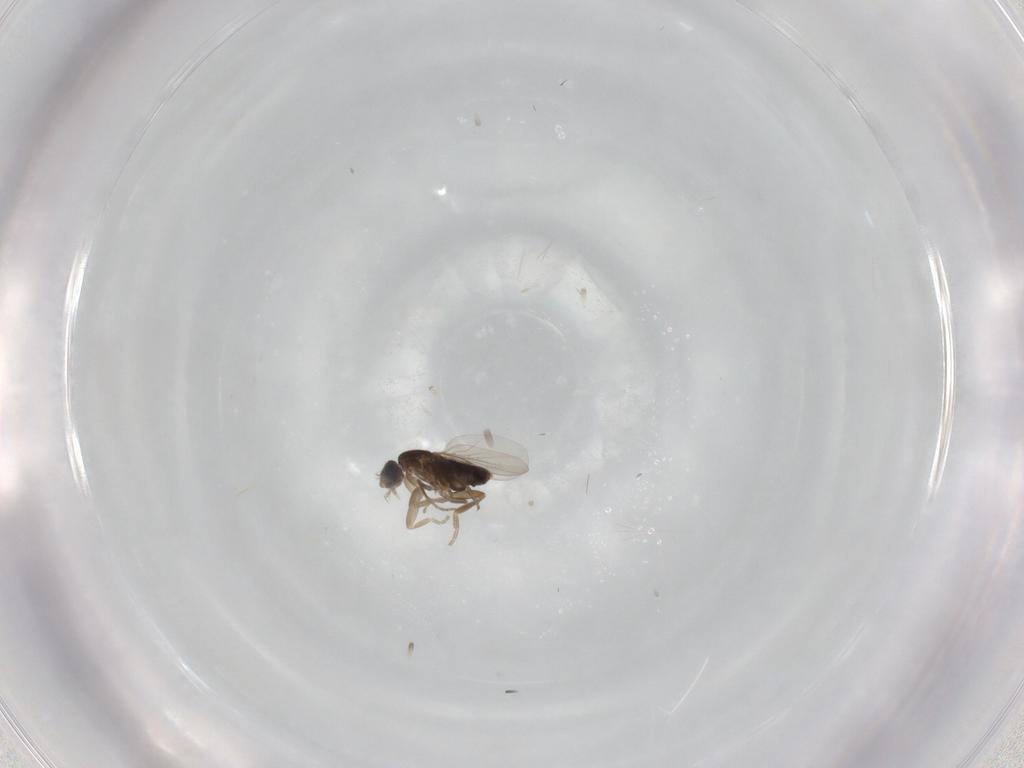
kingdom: Animalia
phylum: Arthropoda
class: Insecta
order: Diptera
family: Phoridae
